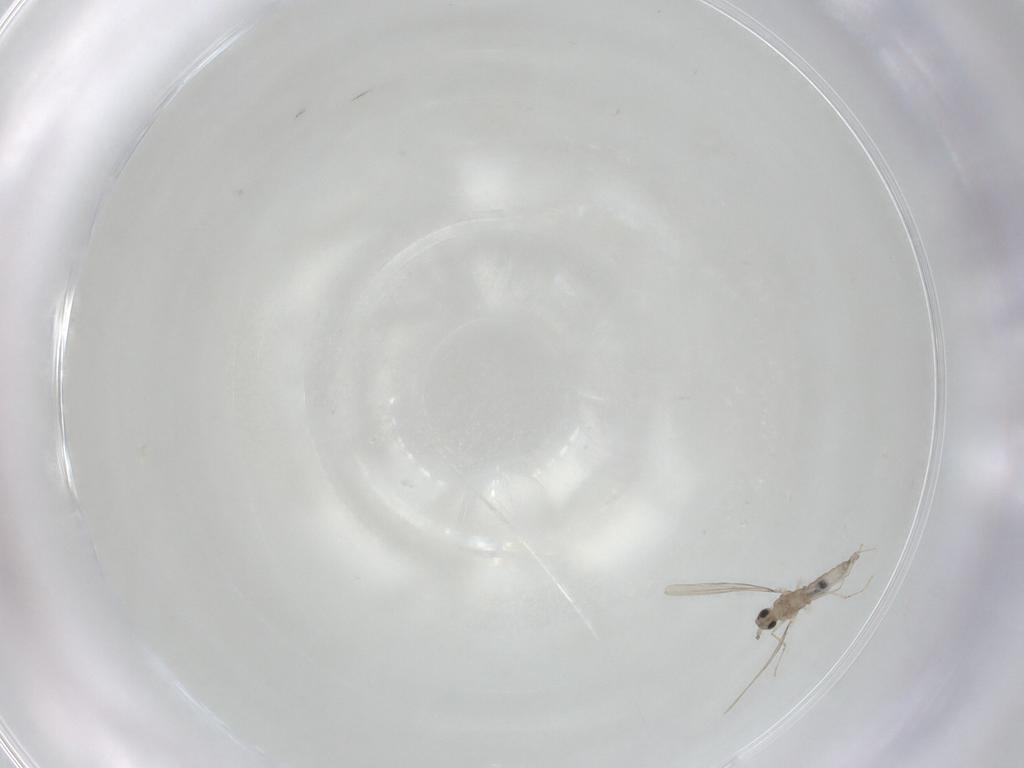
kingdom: Animalia
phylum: Arthropoda
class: Insecta
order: Diptera
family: Cecidomyiidae
